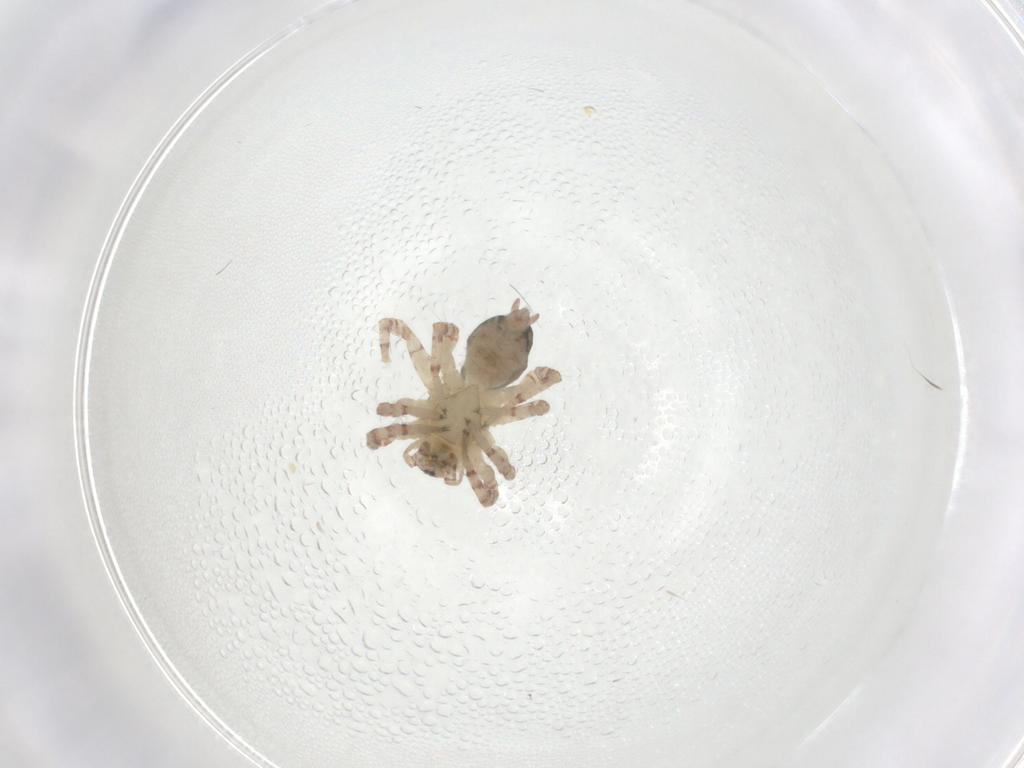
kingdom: Animalia
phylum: Arthropoda
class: Arachnida
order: Araneae
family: Anyphaenidae
